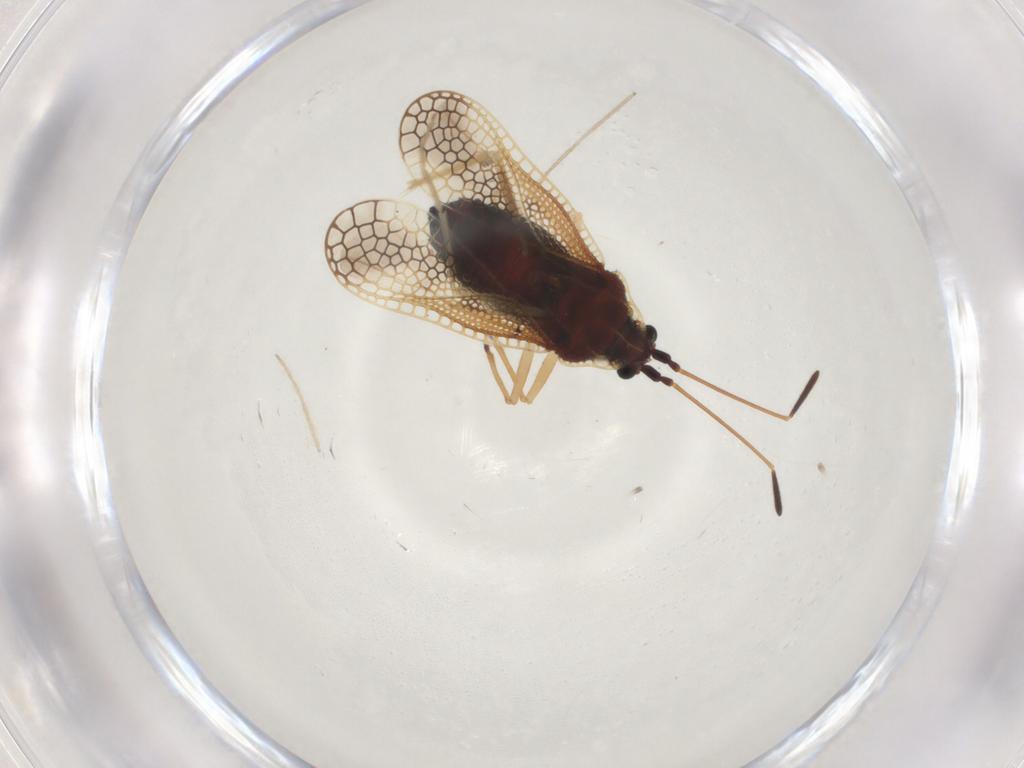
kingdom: Animalia
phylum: Arthropoda
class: Insecta
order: Hemiptera
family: Tingidae
